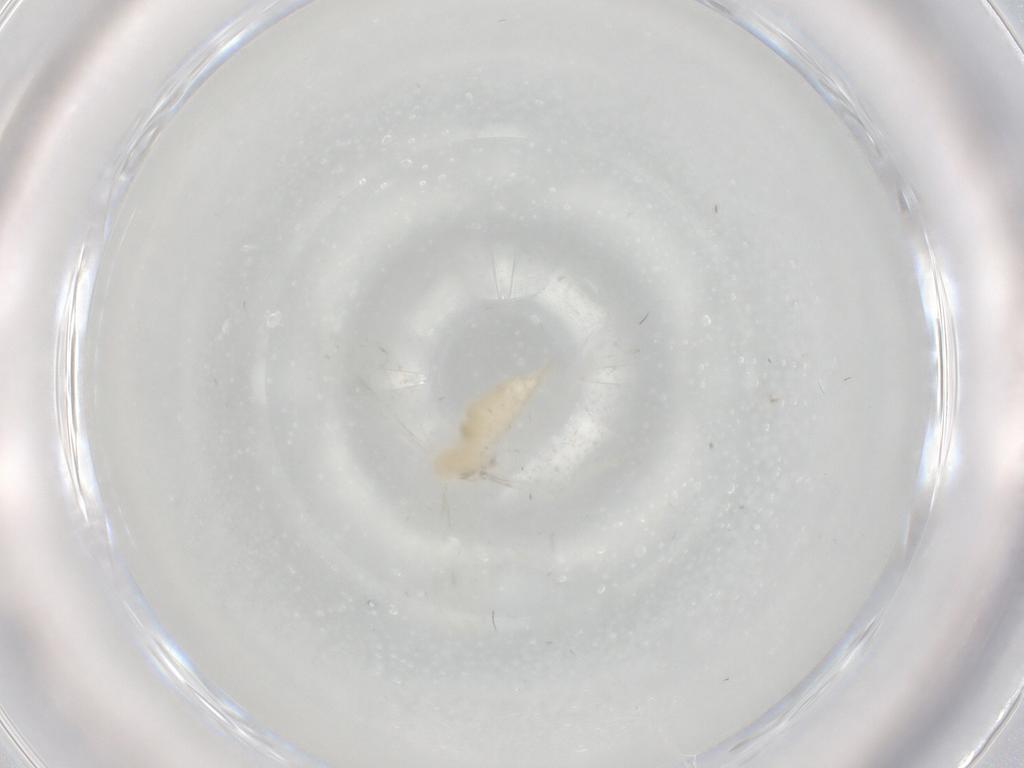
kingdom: Animalia
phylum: Arthropoda
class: Insecta
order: Diptera
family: Cecidomyiidae
